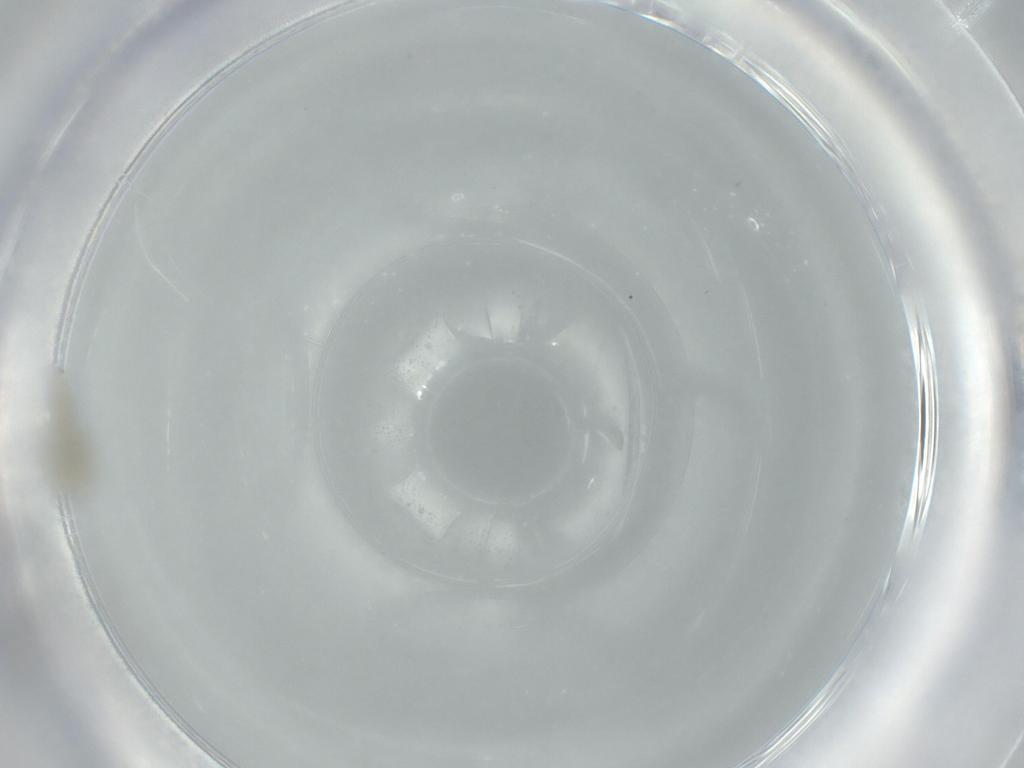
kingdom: Animalia
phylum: Arthropoda
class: Insecta
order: Diptera
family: Chironomidae
